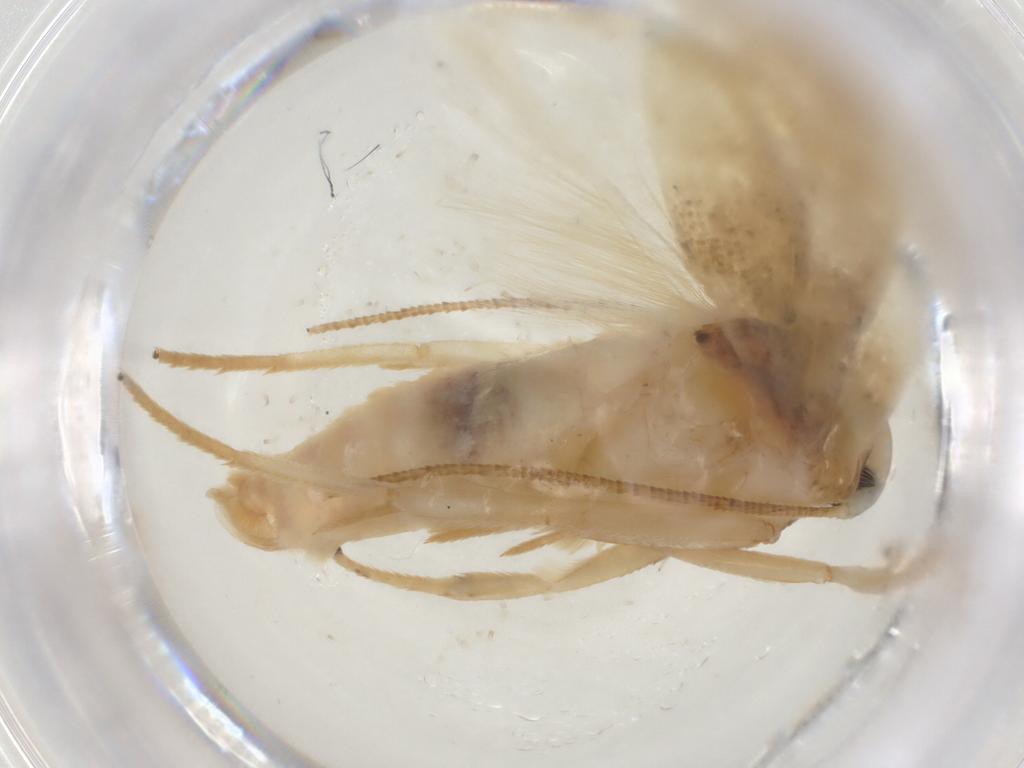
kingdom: Animalia
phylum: Arthropoda
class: Insecta
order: Lepidoptera
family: Depressariidae
